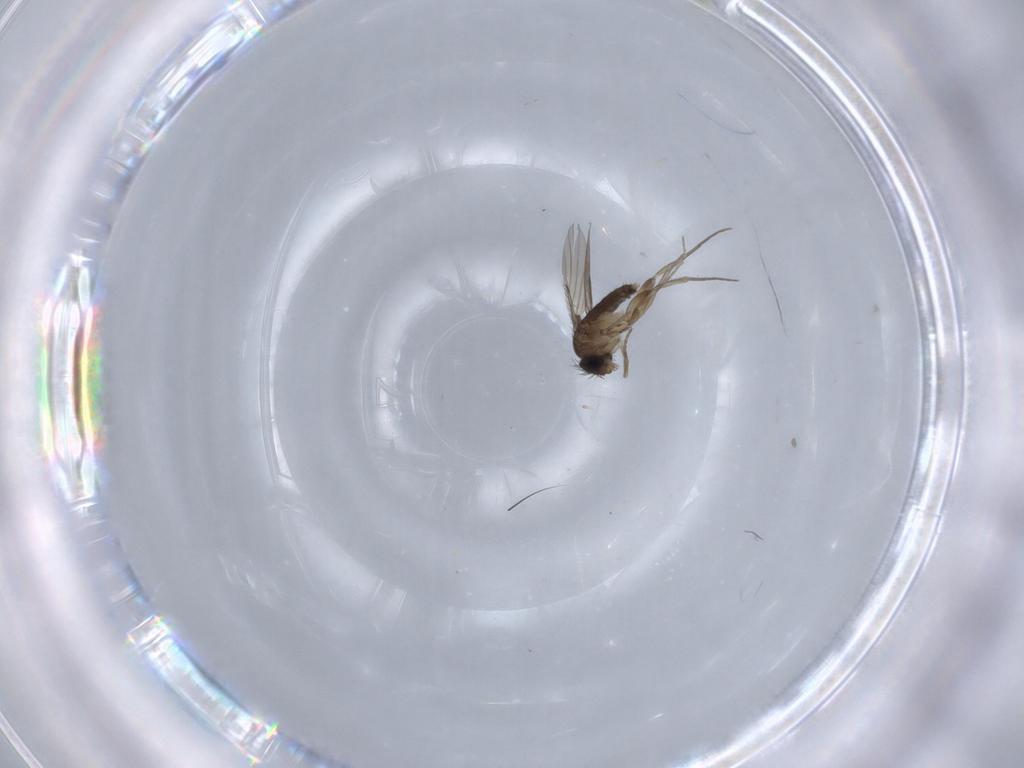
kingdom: Animalia
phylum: Arthropoda
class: Insecta
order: Diptera
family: Phoridae
